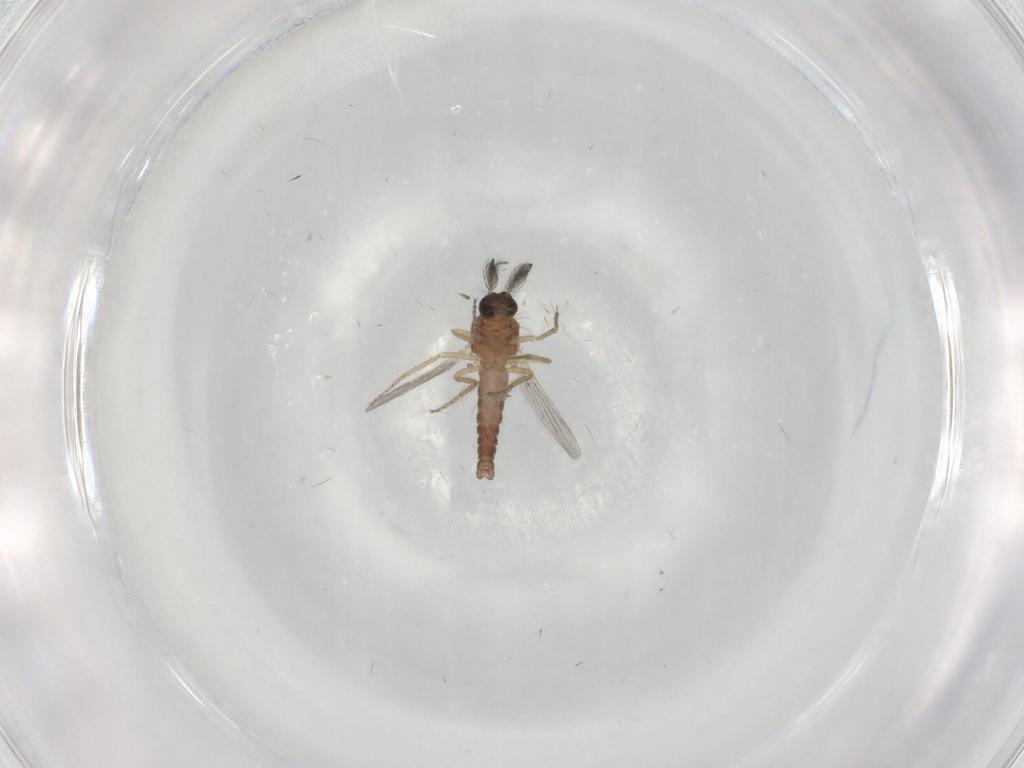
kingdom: Animalia
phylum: Arthropoda
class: Insecta
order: Diptera
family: Ceratopogonidae
